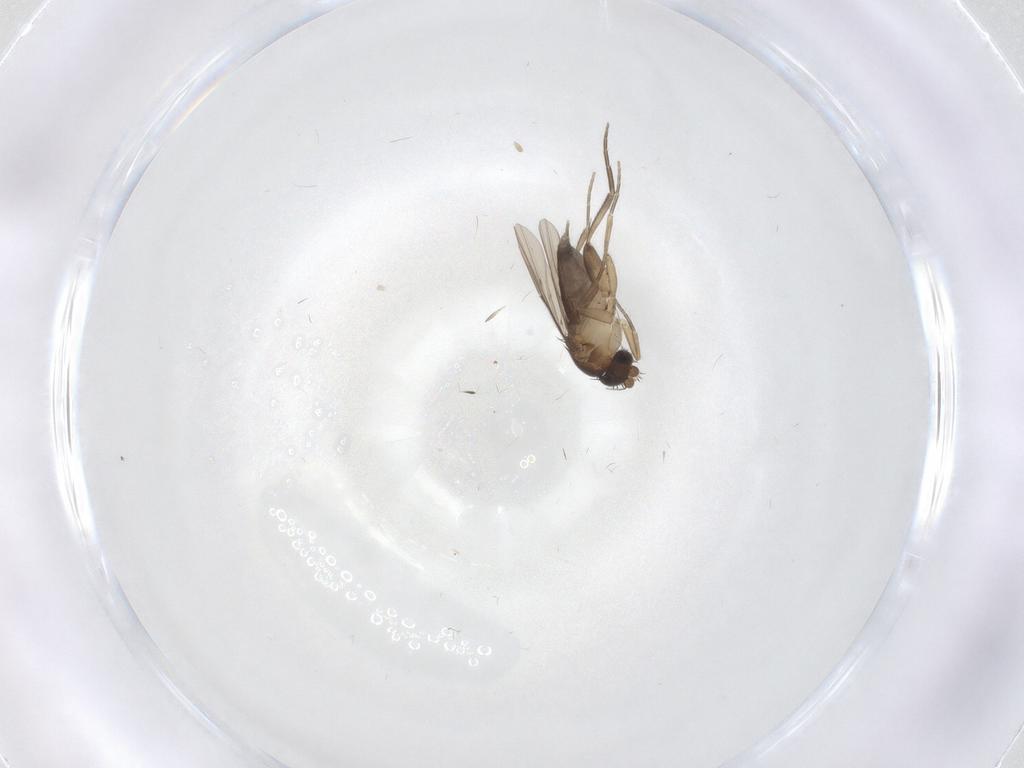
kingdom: Animalia
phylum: Arthropoda
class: Insecta
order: Diptera
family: Phoridae
